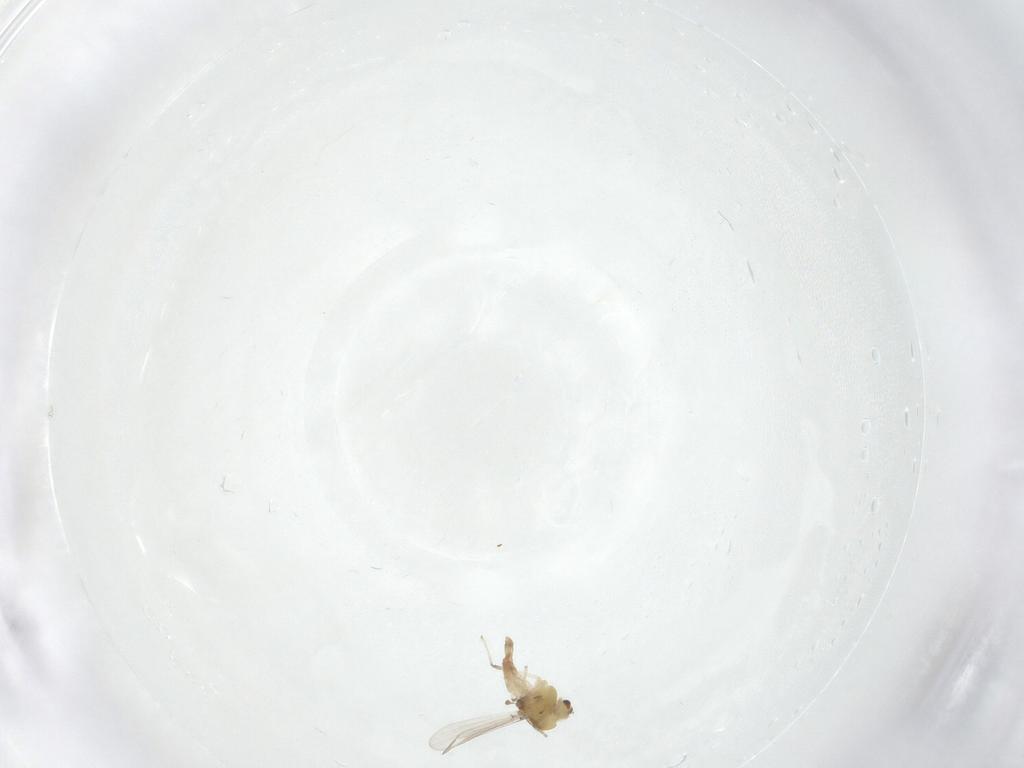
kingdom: Animalia
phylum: Arthropoda
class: Insecta
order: Diptera
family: Chironomidae
